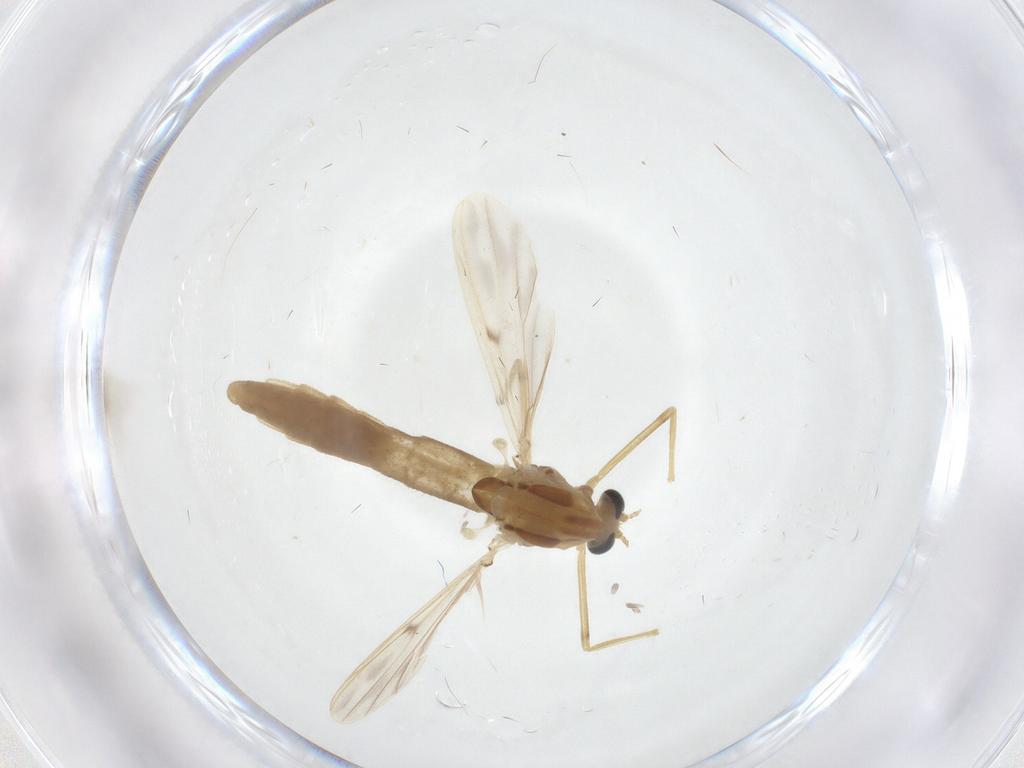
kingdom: Animalia
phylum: Arthropoda
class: Insecta
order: Diptera
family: Chironomidae
